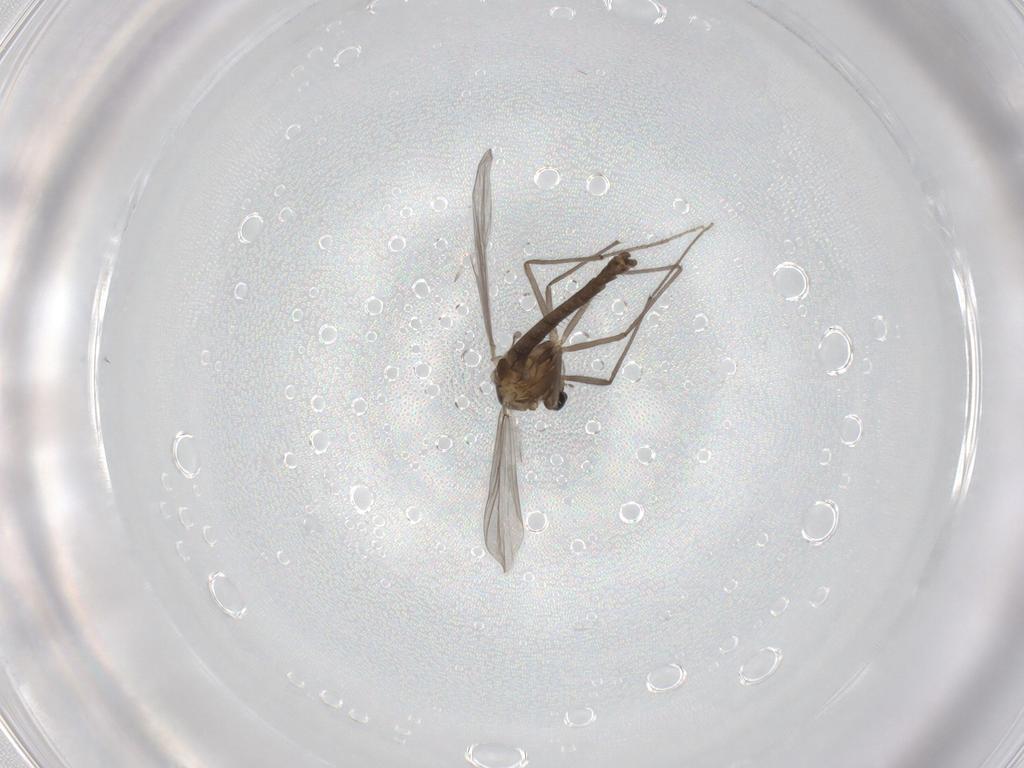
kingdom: Animalia
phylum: Arthropoda
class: Insecta
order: Diptera
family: Chironomidae
